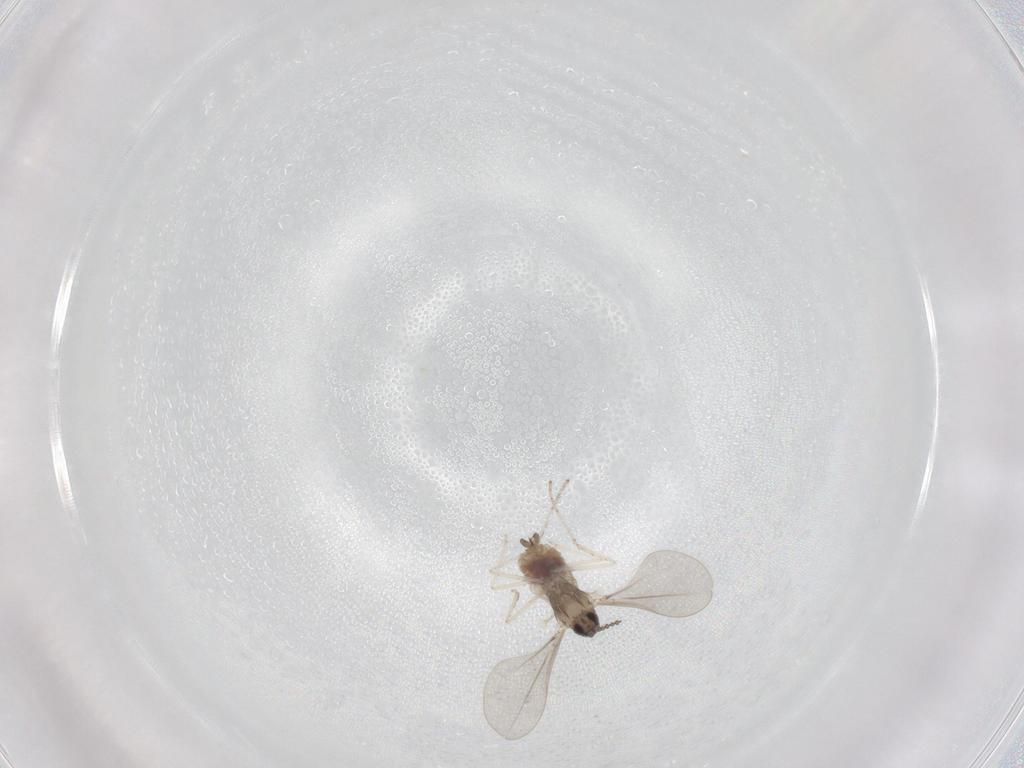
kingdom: Animalia
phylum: Arthropoda
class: Insecta
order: Diptera
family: Cecidomyiidae
